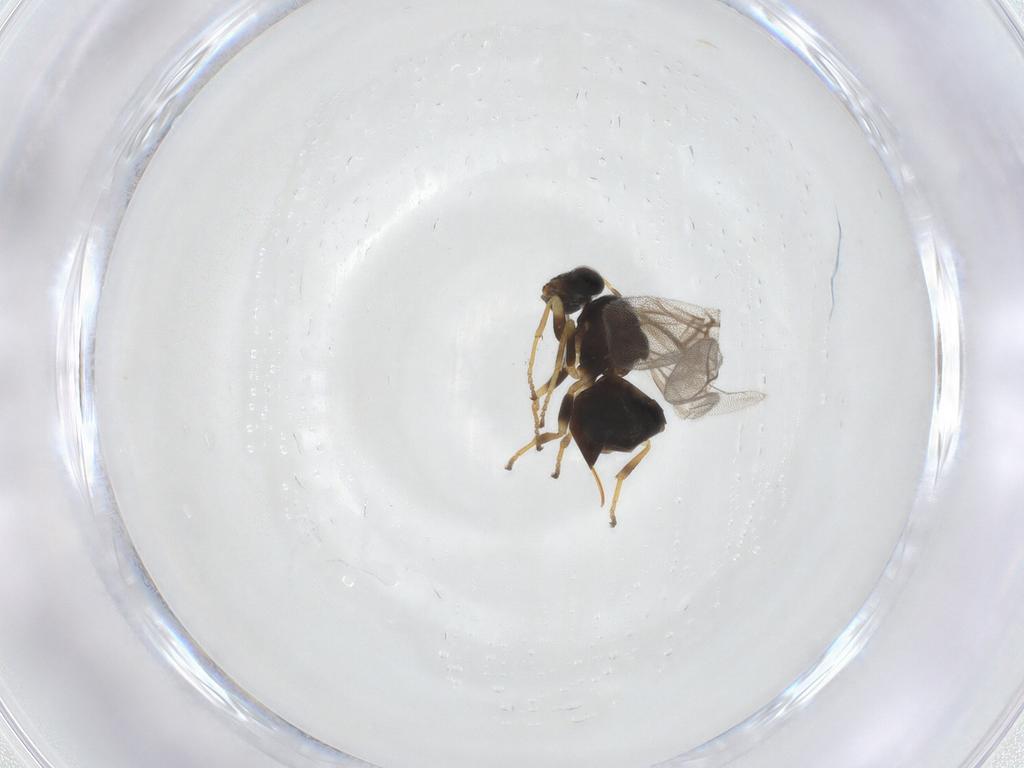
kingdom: Animalia
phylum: Arthropoda
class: Insecta
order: Hymenoptera
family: Cynipidae
